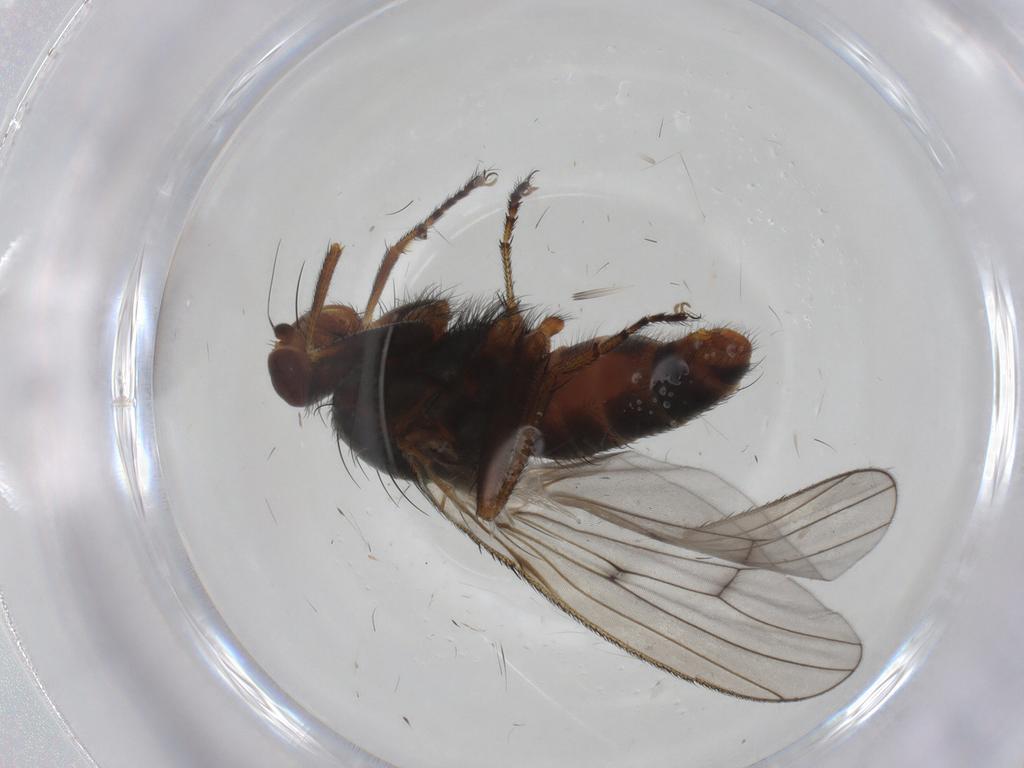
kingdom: Animalia
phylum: Arthropoda
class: Insecta
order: Diptera
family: Heleomyzidae
